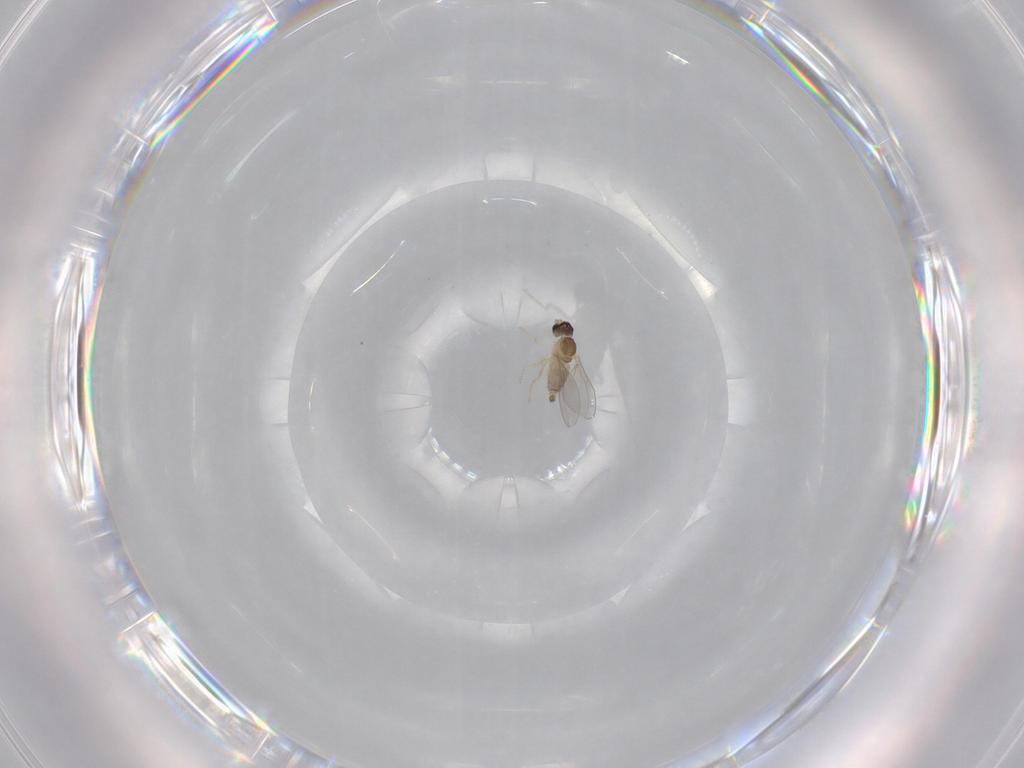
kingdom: Animalia
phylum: Arthropoda
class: Insecta
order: Diptera
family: Cecidomyiidae
